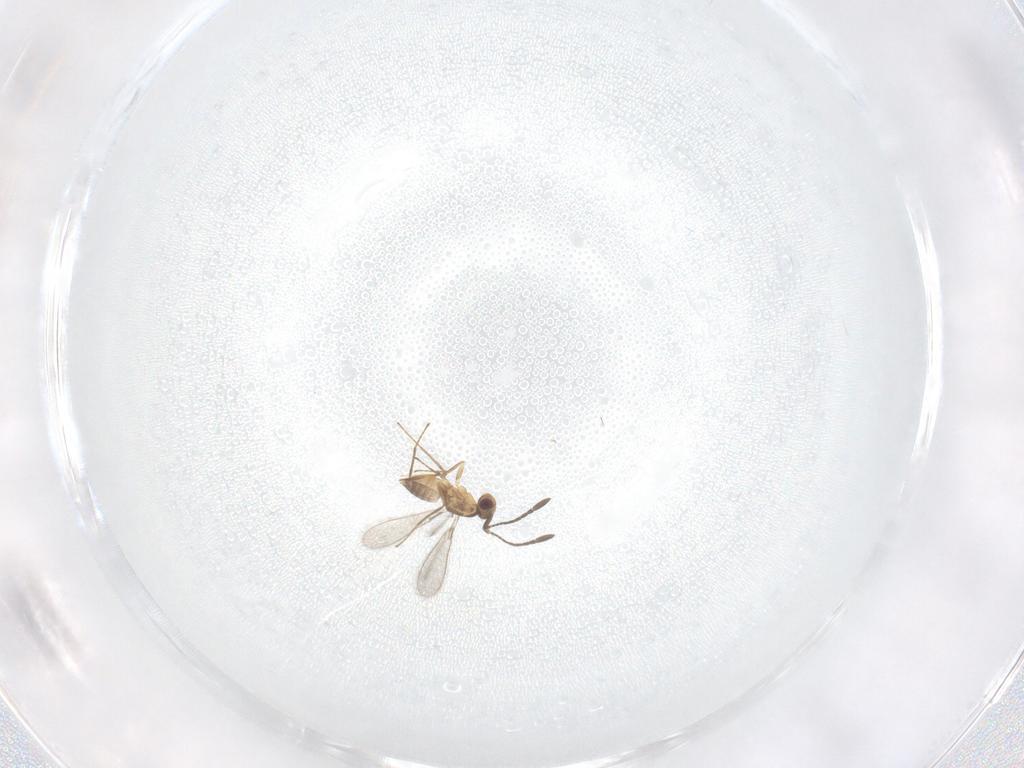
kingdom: Animalia
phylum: Arthropoda
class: Insecta
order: Hymenoptera
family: Mymaridae
